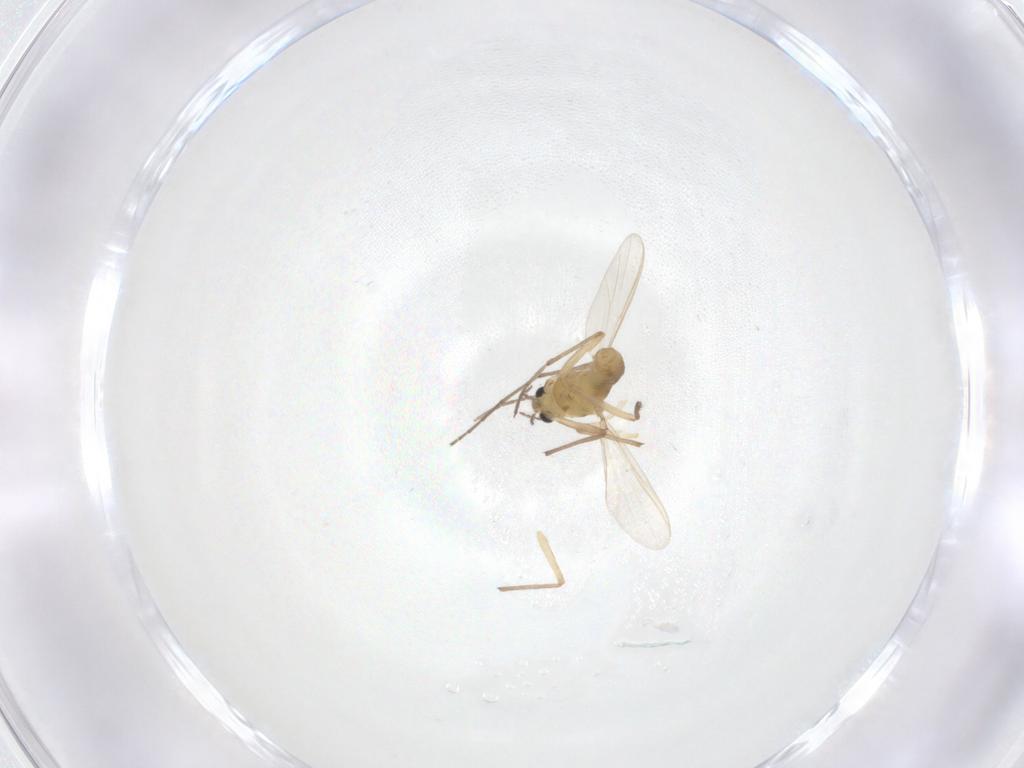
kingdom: Animalia
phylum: Arthropoda
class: Insecta
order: Diptera
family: Chironomidae
